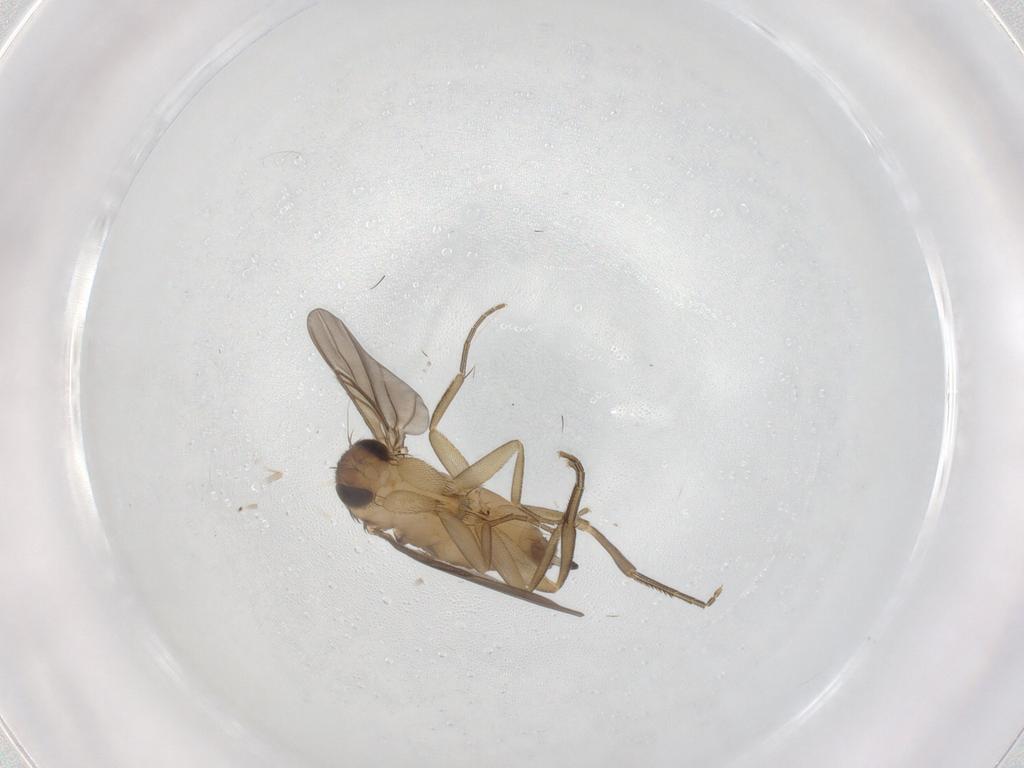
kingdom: Animalia
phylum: Arthropoda
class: Insecta
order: Diptera
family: Phoridae
